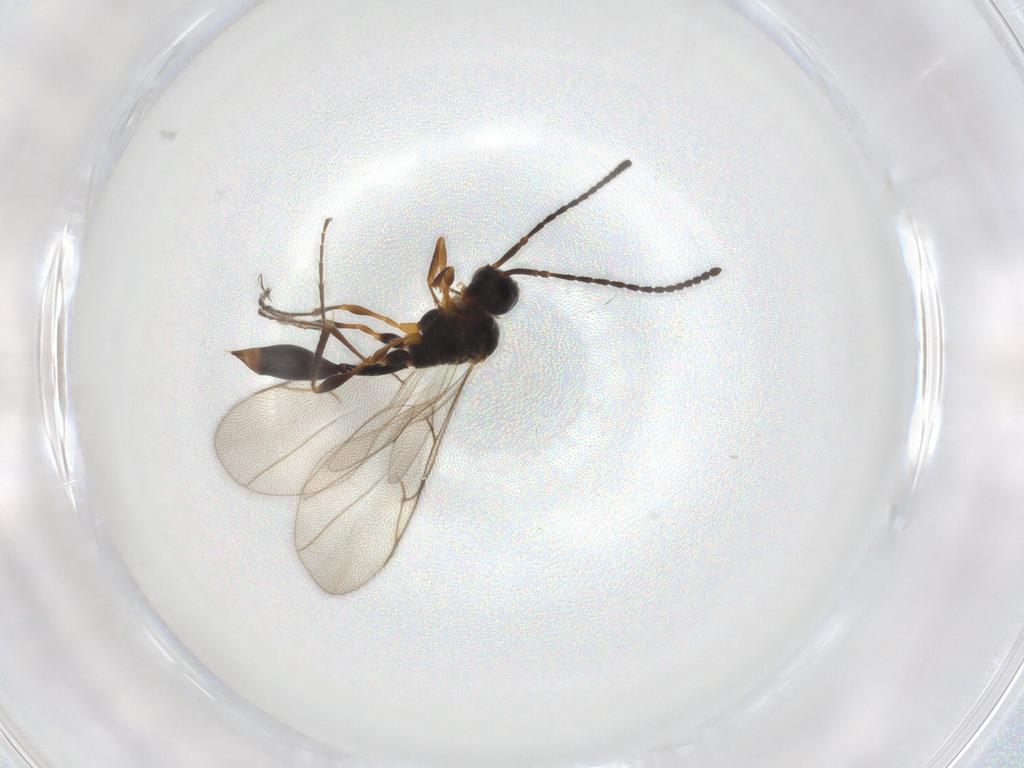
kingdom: Animalia
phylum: Arthropoda
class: Insecta
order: Hymenoptera
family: Diapriidae
